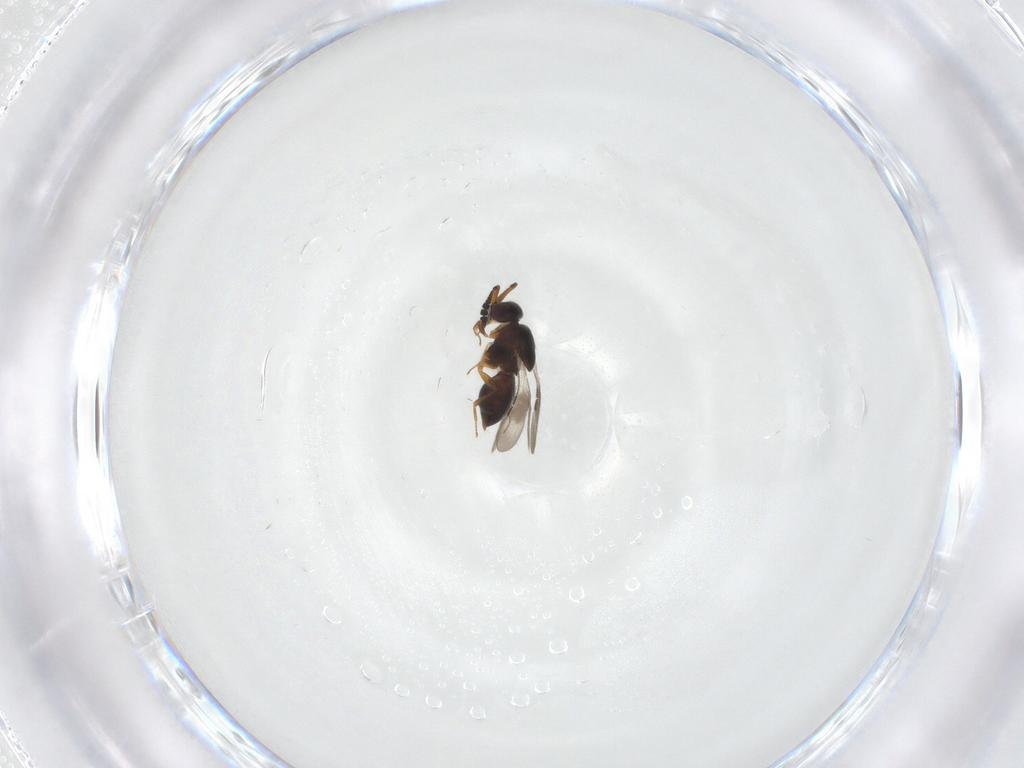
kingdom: Animalia
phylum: Arthropoda
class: Insecta
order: Hymenoptera
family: Ceraphronidae
